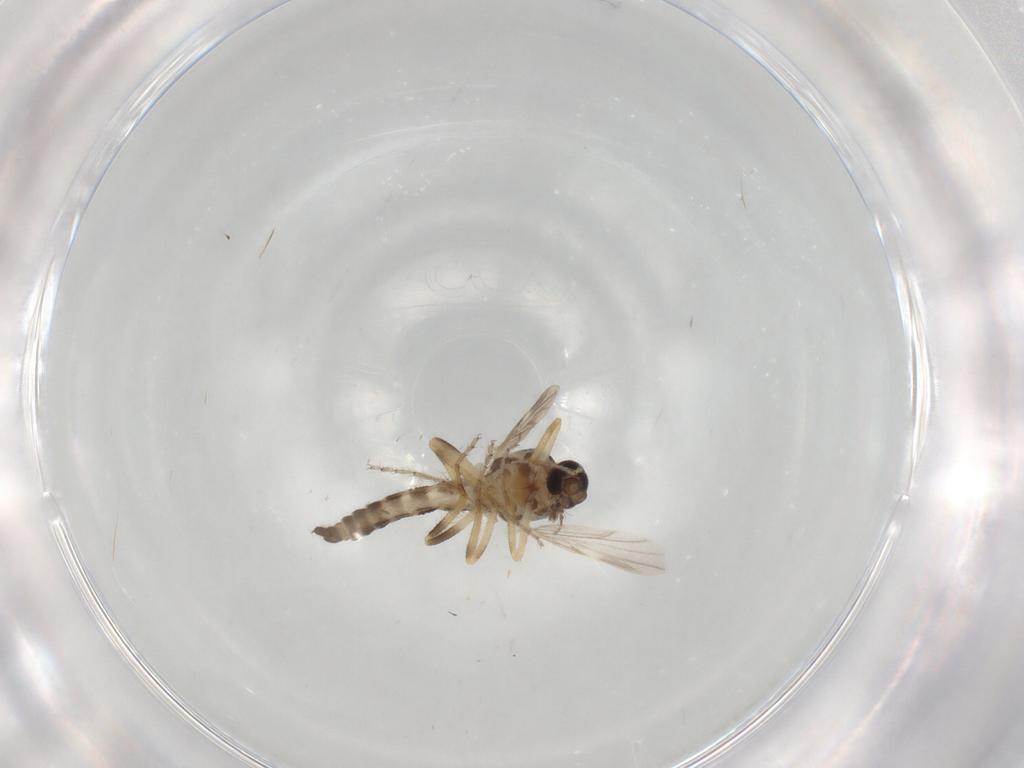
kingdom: Animalia
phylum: Arthropoda
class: Insecta
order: Diptera
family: Ceratopogonidae
